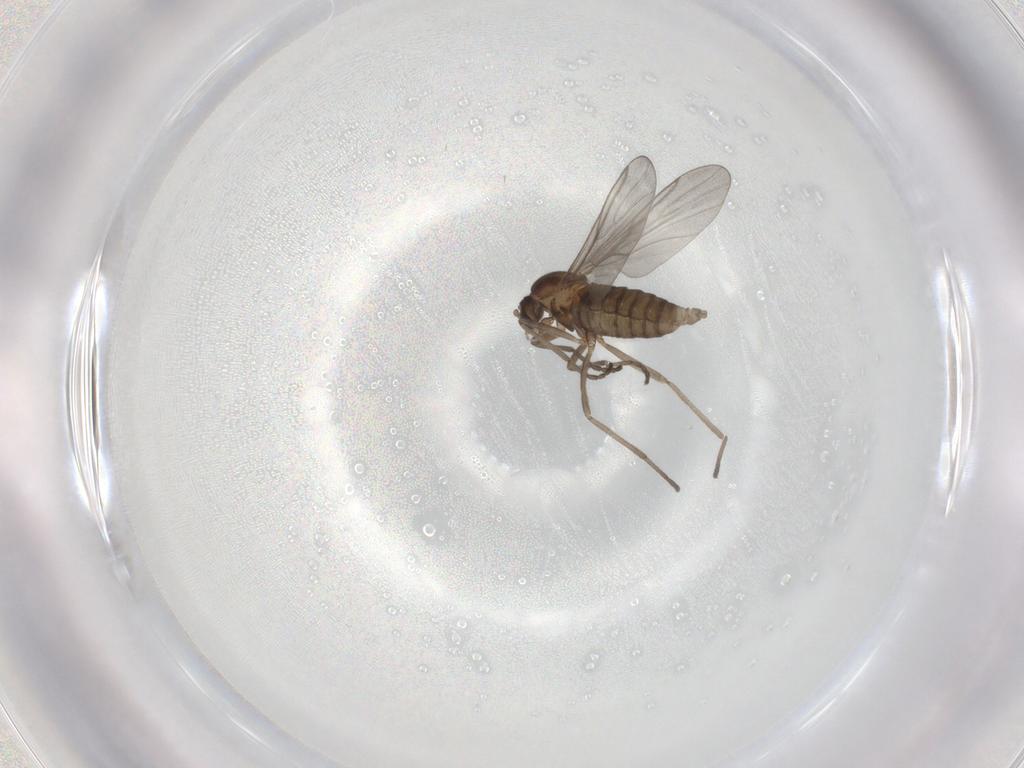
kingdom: Animalia
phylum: Arthropoda
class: Insecta
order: Diptera
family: Cecidomyiidae
